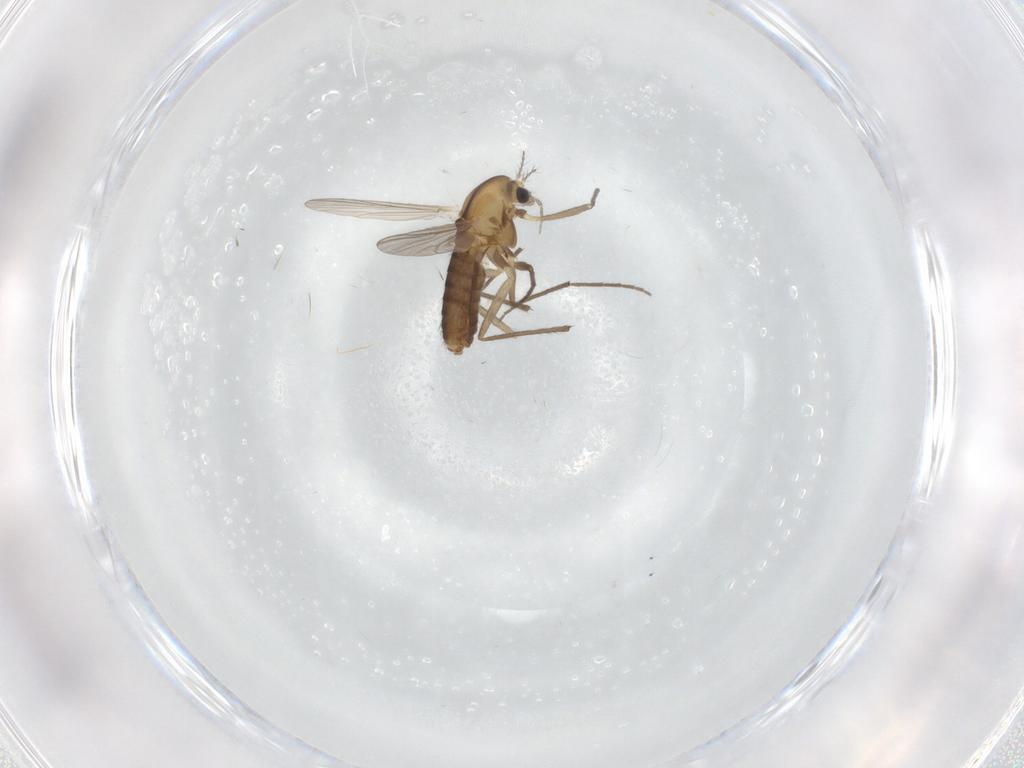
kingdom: Animalia
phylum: Arthropoda
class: Insecta
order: Diptera
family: Chironomidae
